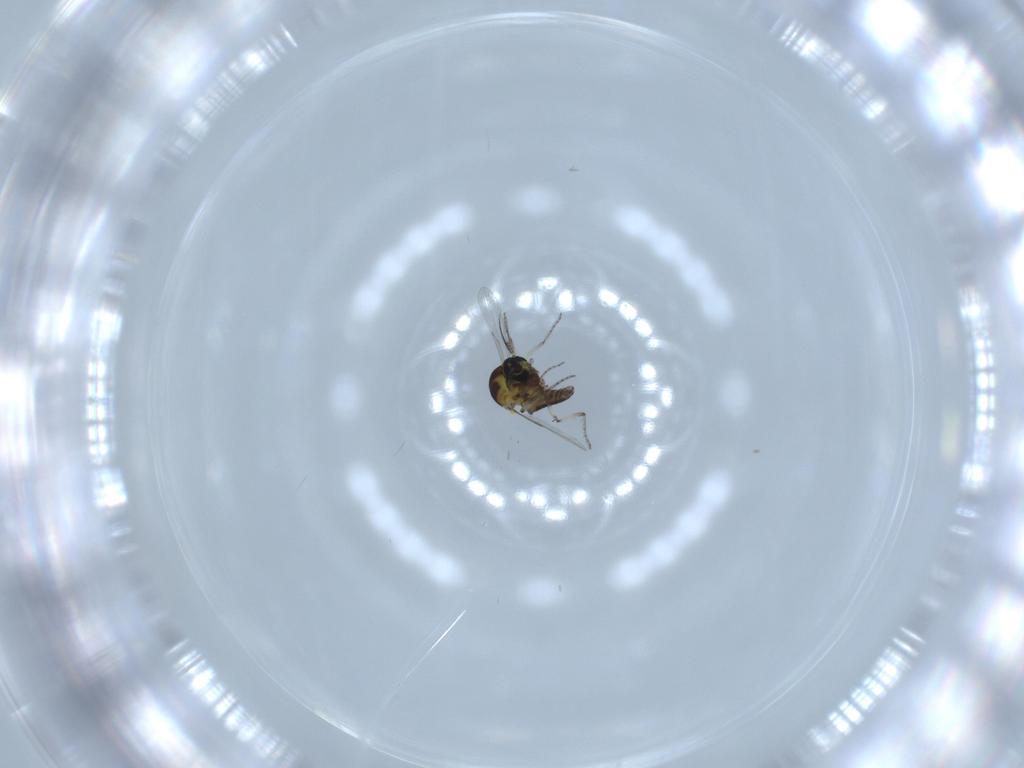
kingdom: Animalia
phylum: Arthropoda
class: Insecta
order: Diptera
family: Ceratopogonidae
